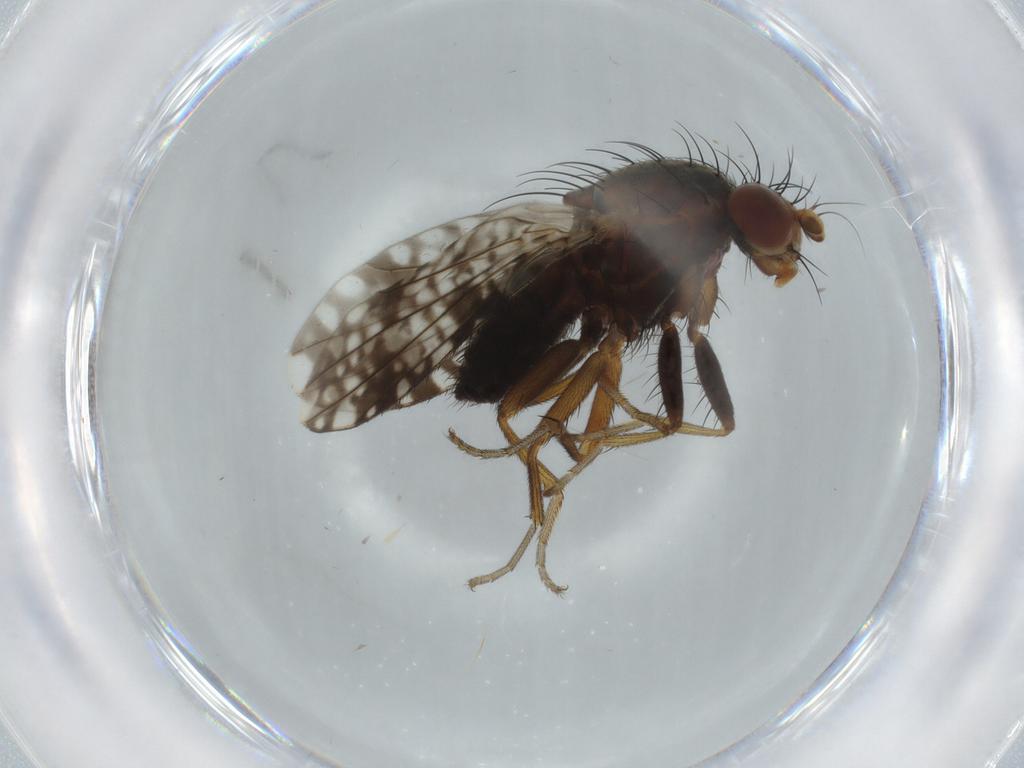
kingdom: Animalia
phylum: Arthropoda
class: Insecta
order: Diptera
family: Tephritidae
